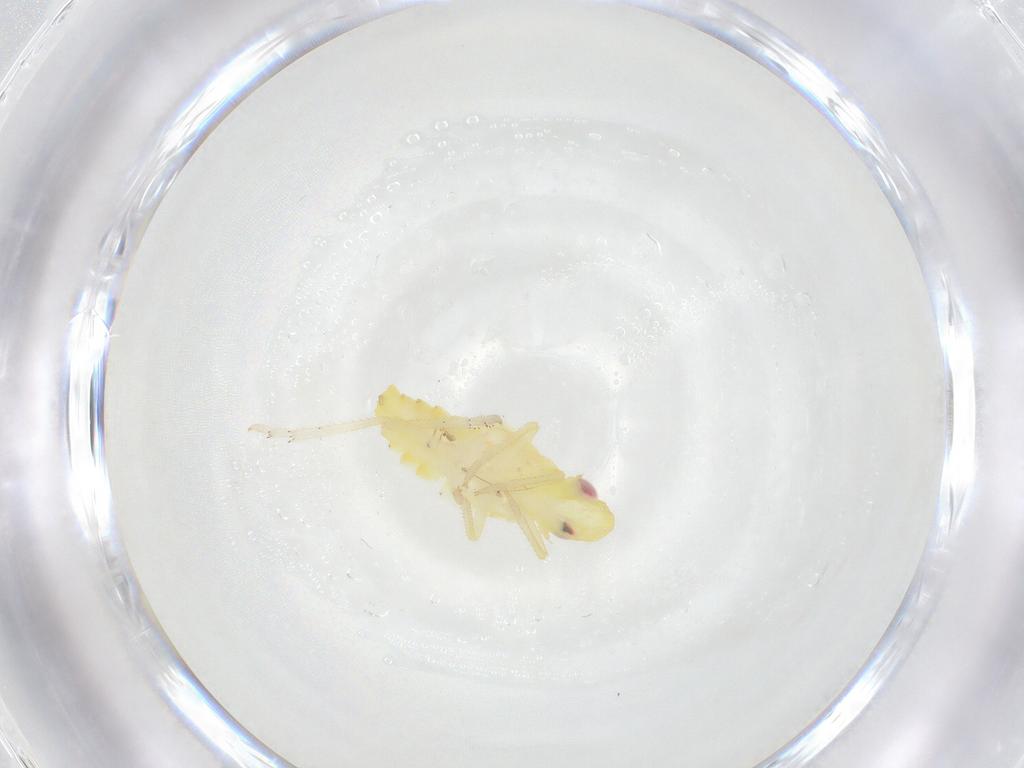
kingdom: Animalia
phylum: Arthropoda
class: Insecta
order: Hemiptera
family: Tropiduchidae
